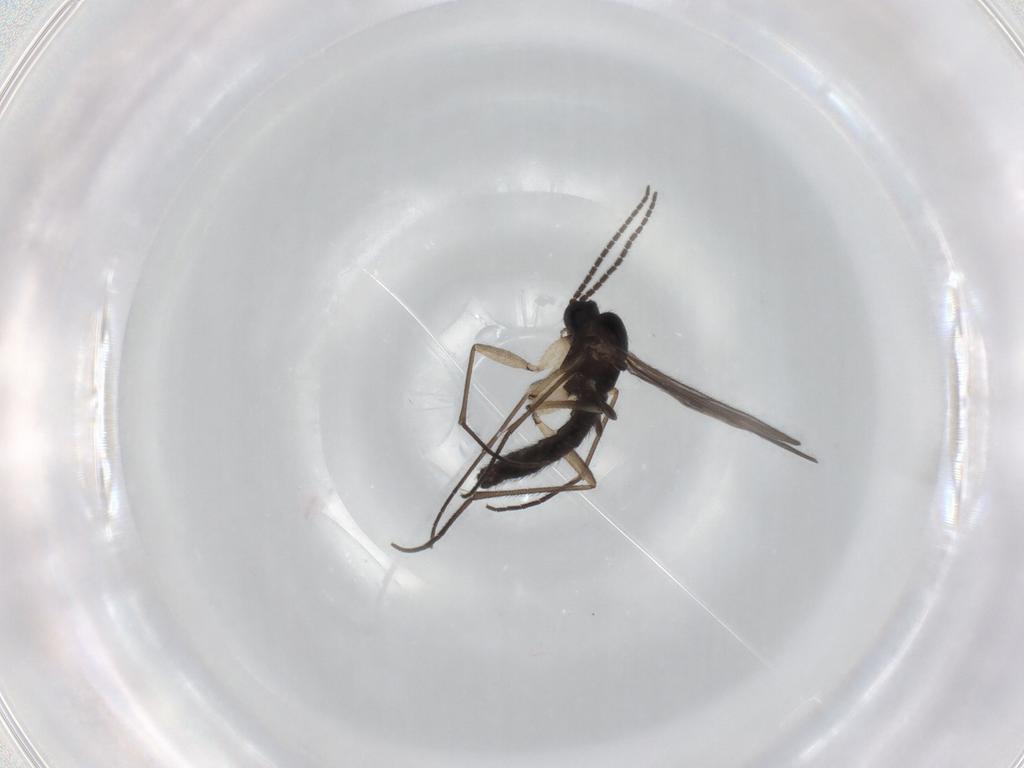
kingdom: Animalia
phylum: Arthropoda
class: Insecta
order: Diptera
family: Sciaridae
